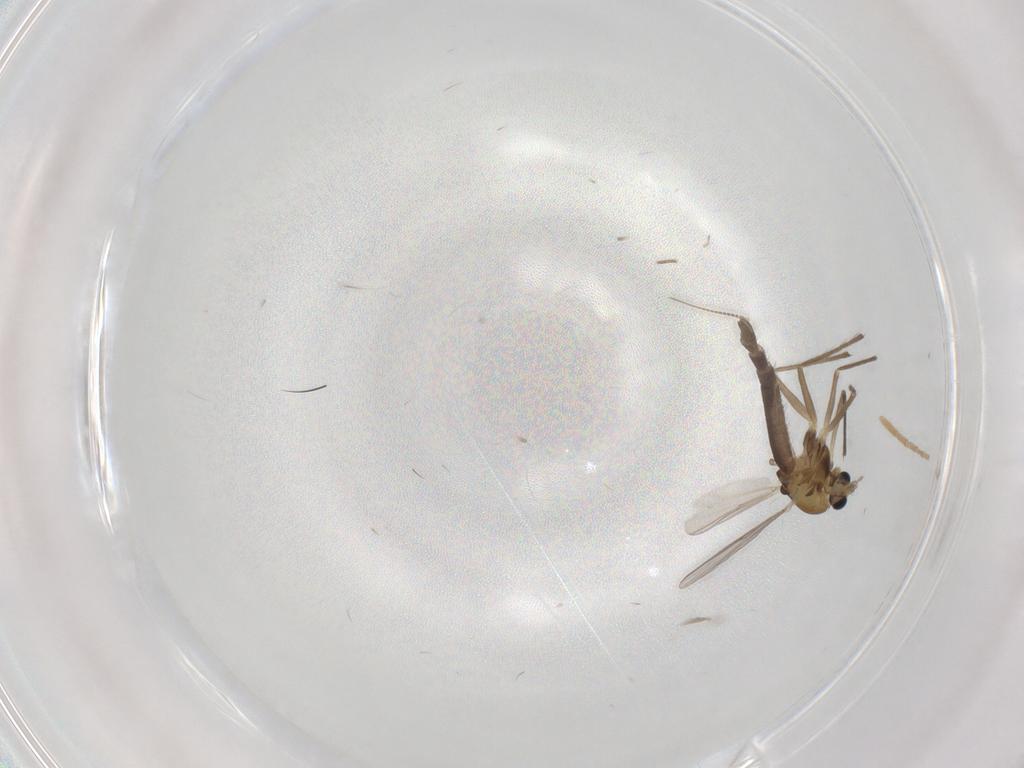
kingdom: Animalia
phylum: Arthropoda
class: Insecta
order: Diptera
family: Chironomidae
